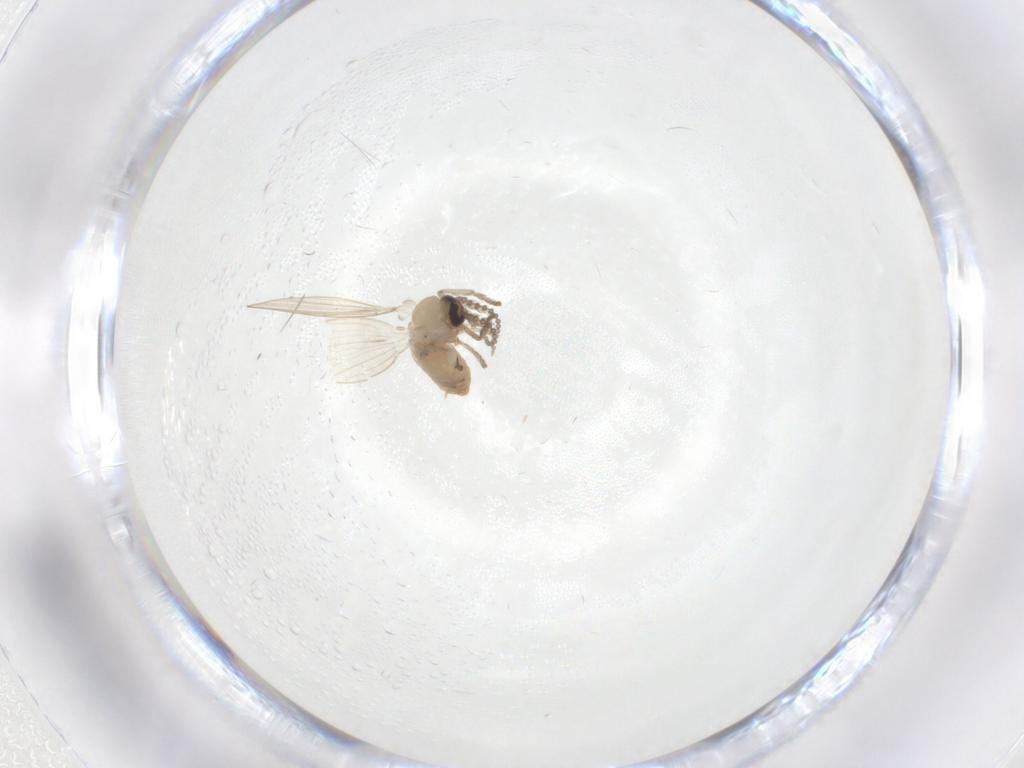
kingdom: Animalia
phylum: Arthropoda
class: Insecta
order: Diptera
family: Psychodidae
